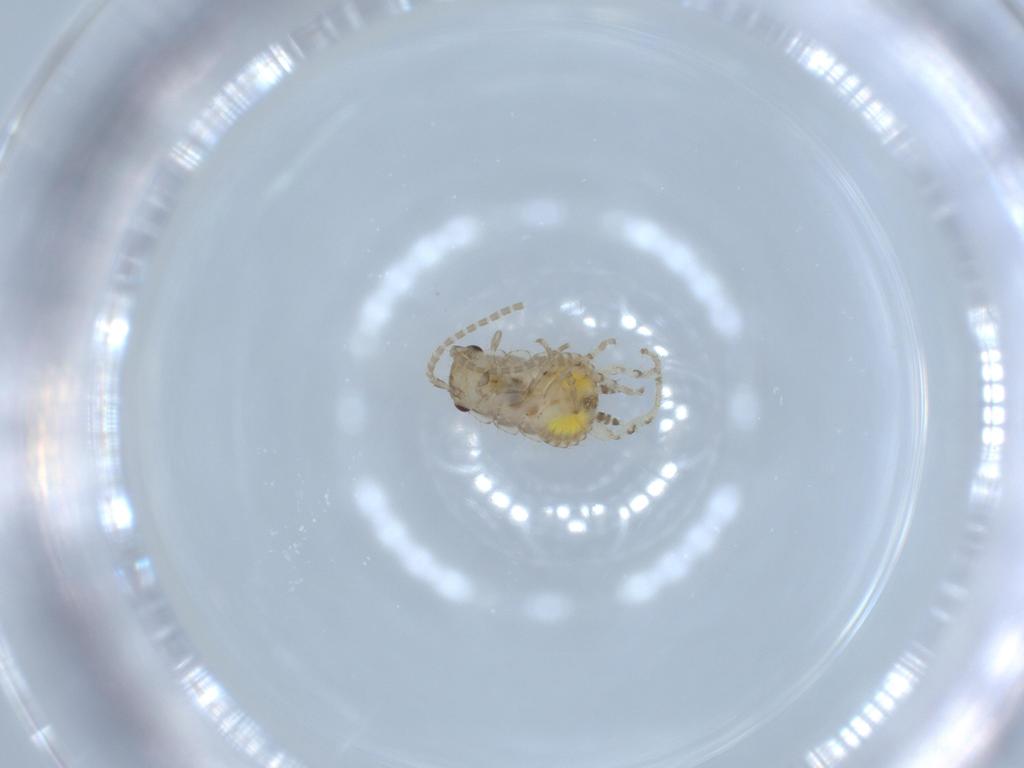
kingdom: Animalia
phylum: Arthropoda
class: Insecta
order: Blattodea
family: Ectobiidae
